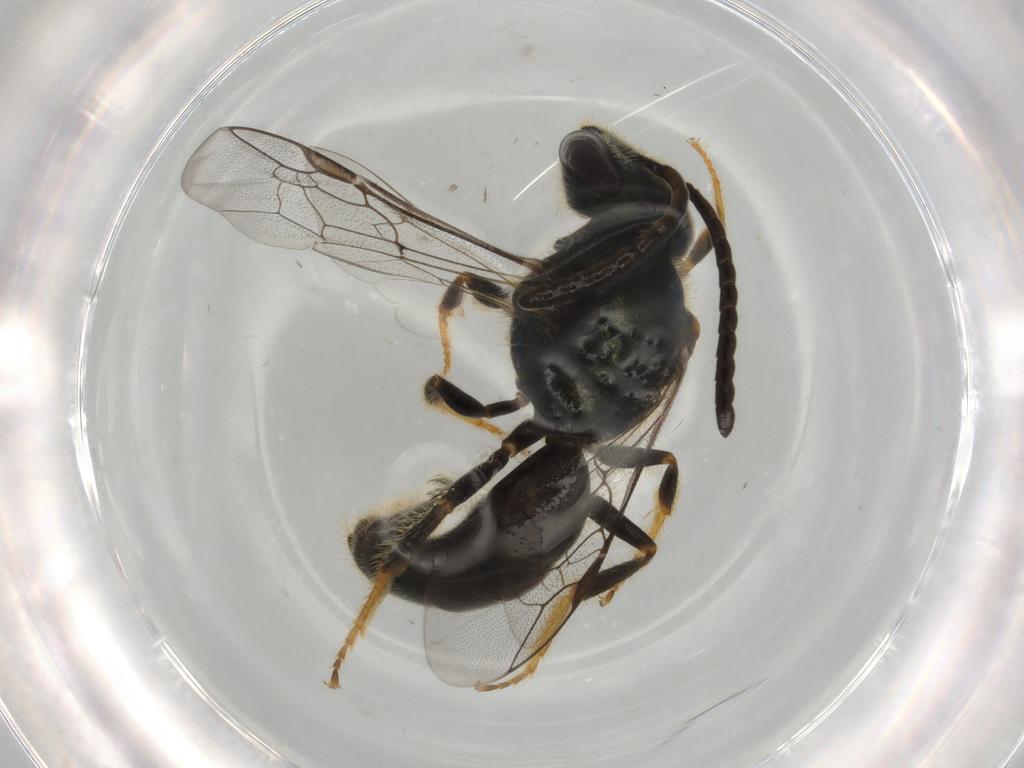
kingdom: Animalia
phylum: Arthropoda
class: Insecta
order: Hymenoptera
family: Halictidae
